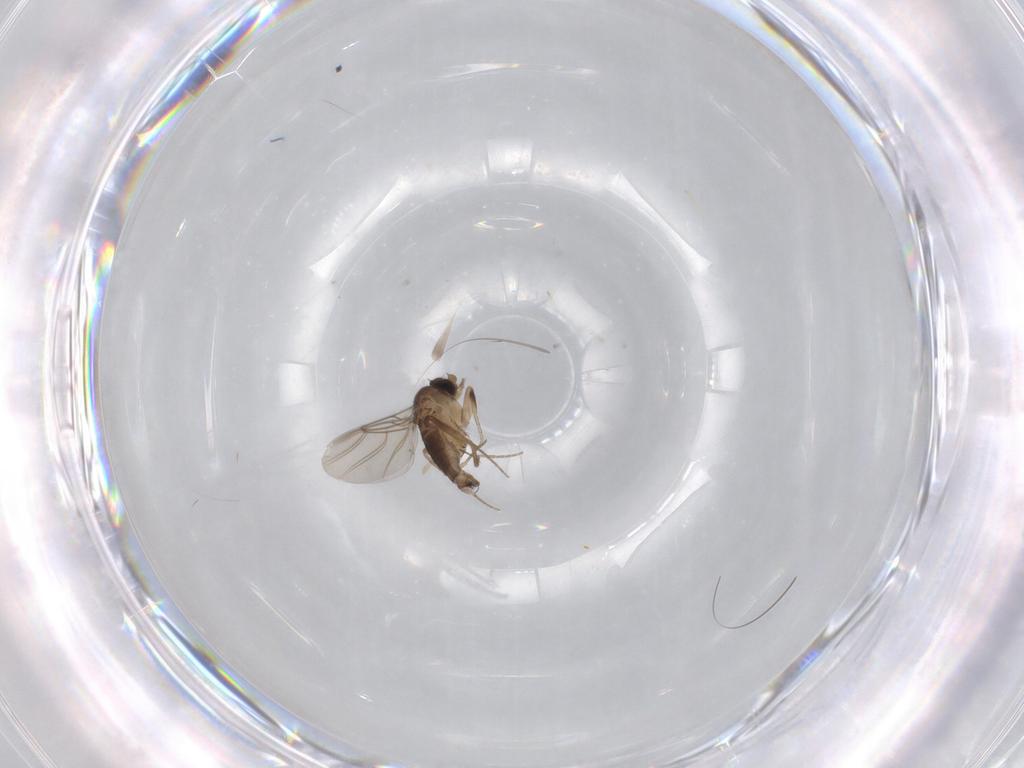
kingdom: Animalia
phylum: Arthropoda
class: Insecta
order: Diptera
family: Phoridae
